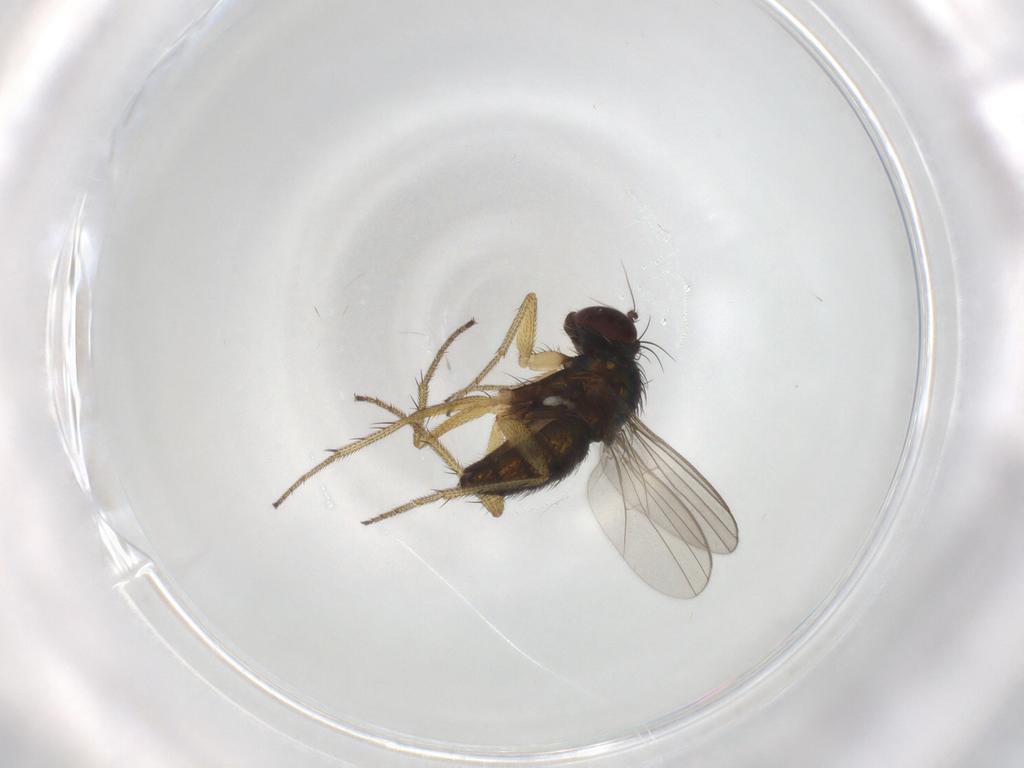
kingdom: Animalia
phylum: Arthropoda
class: Insecta
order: Diptera
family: Dolichopodidae
